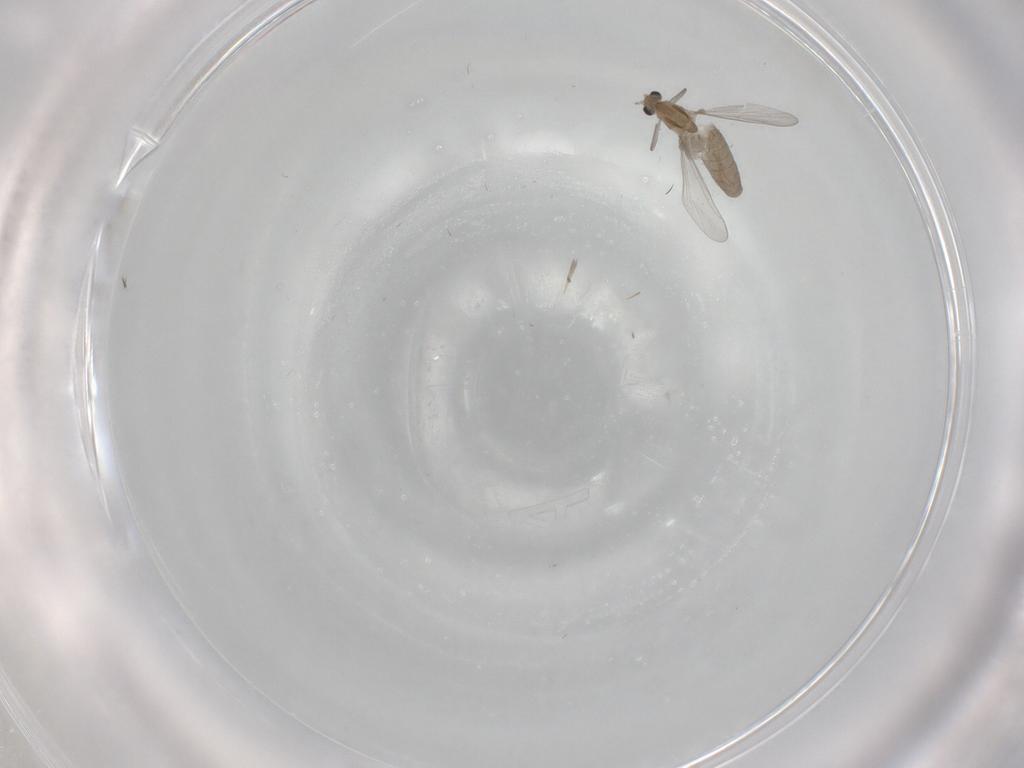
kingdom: Animalia
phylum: Arthropoda
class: Insecta
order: Diptera
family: Chironomidae
